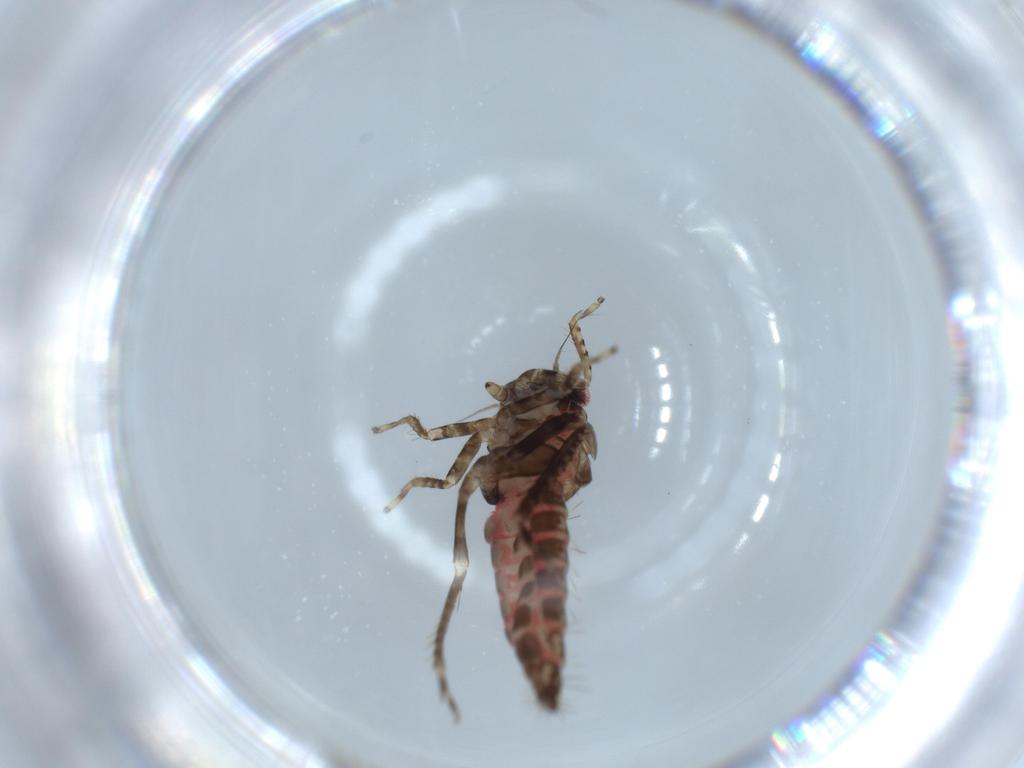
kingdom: Animalia
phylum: Arthropoda
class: Insecta
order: Hemiptera
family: Cicadellidae
